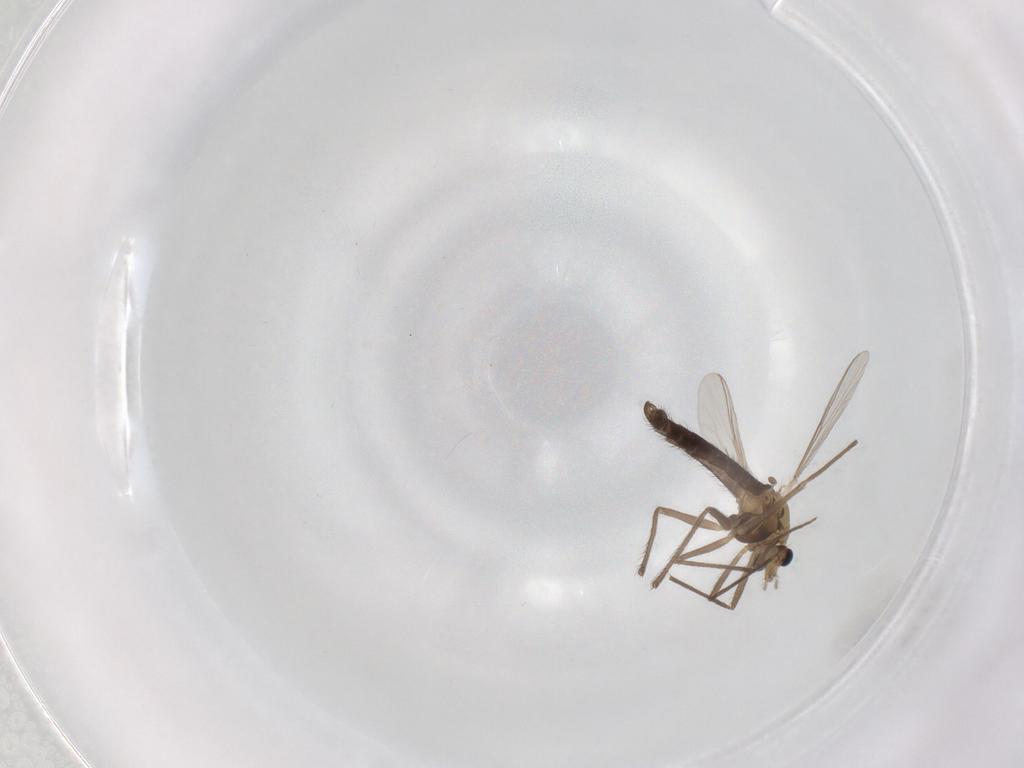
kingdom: Animalia
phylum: Arthropoda
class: Insecta
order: Diptera
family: Chironomidae
